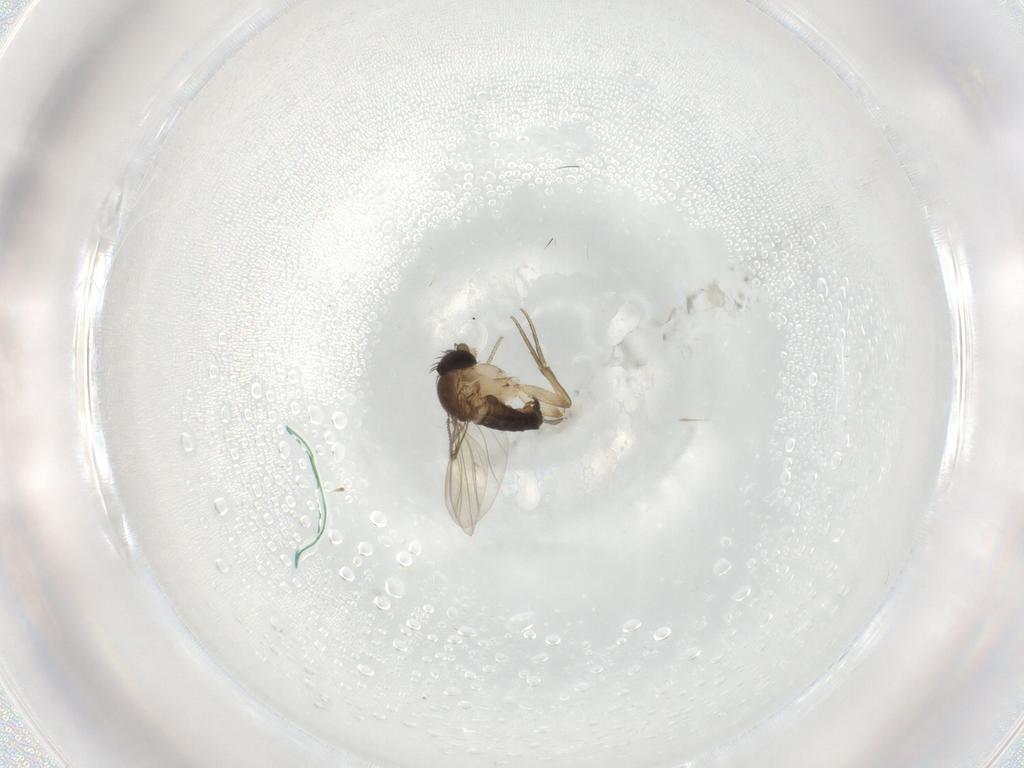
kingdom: Animalia
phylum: Arthropoda
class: Insecta
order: Diptera
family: Phoridae
